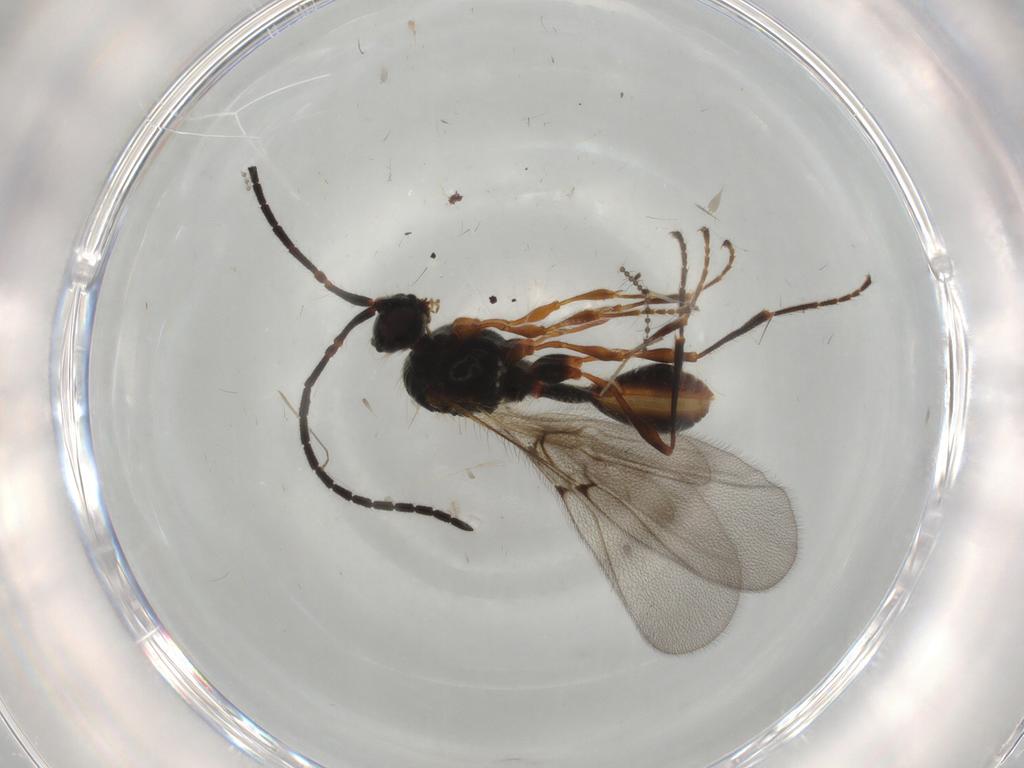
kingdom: Animalia
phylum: Arthropoda
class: Insecta
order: Hymenoptera
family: Diapriidae
